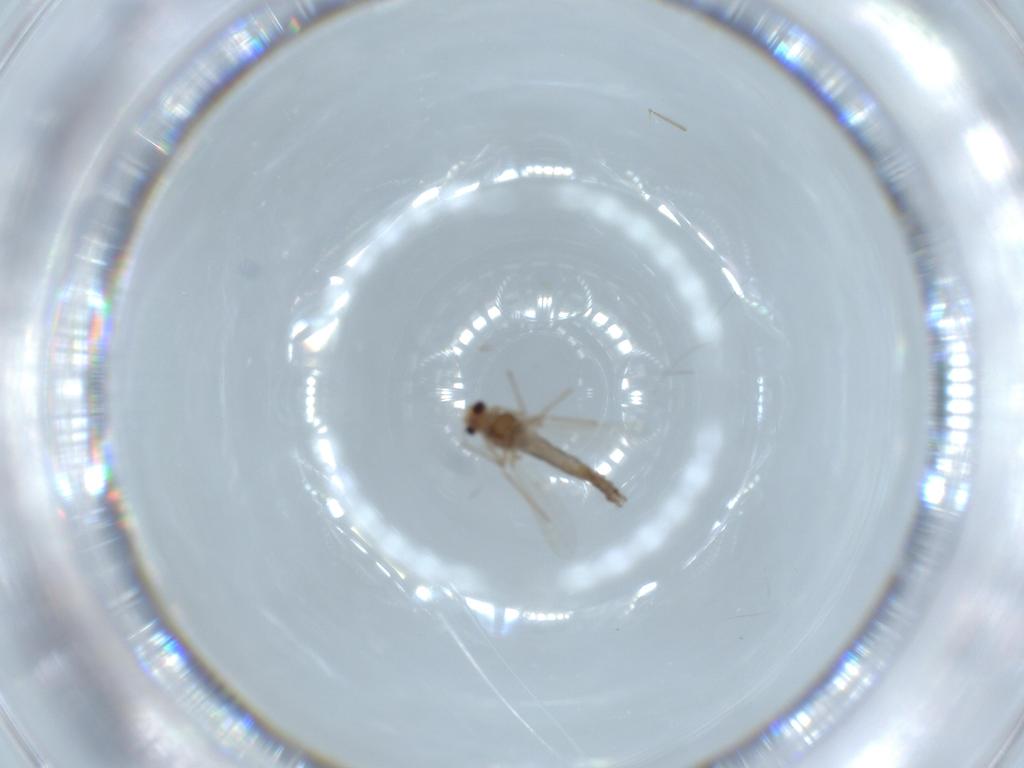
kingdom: Animalia
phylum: Arthropoda
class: Insecta
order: Diptera
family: Chironomidae
